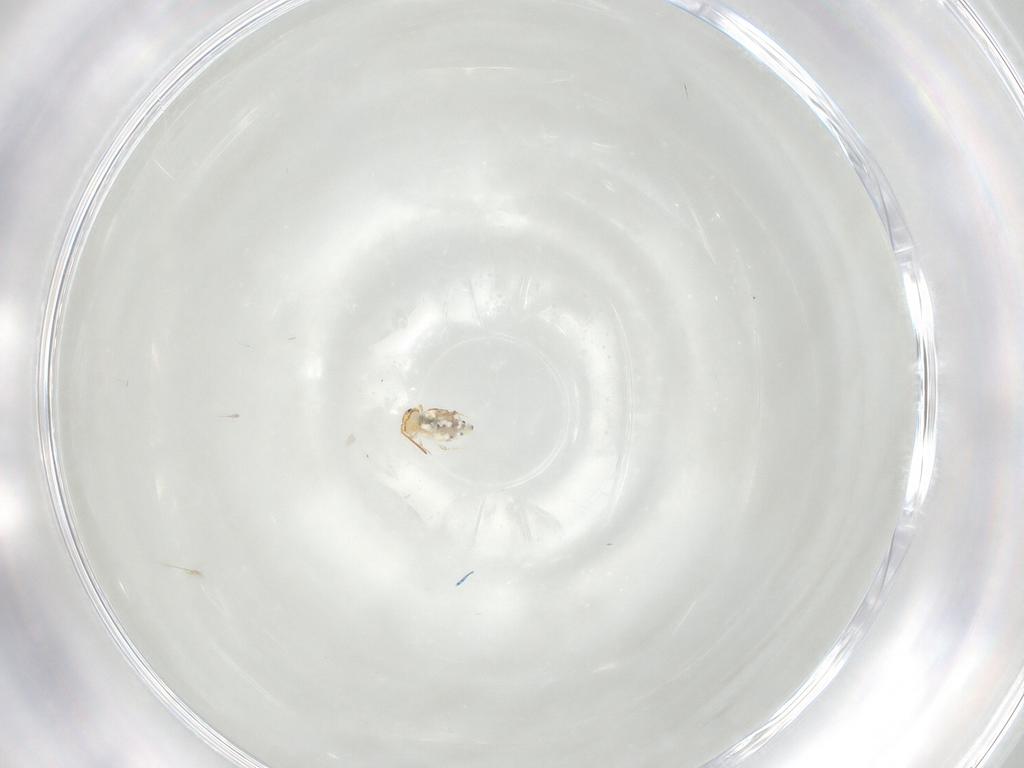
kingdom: Animalia
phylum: Arthropoda
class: Collembola
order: Symphypleona
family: Bourletiellidae
